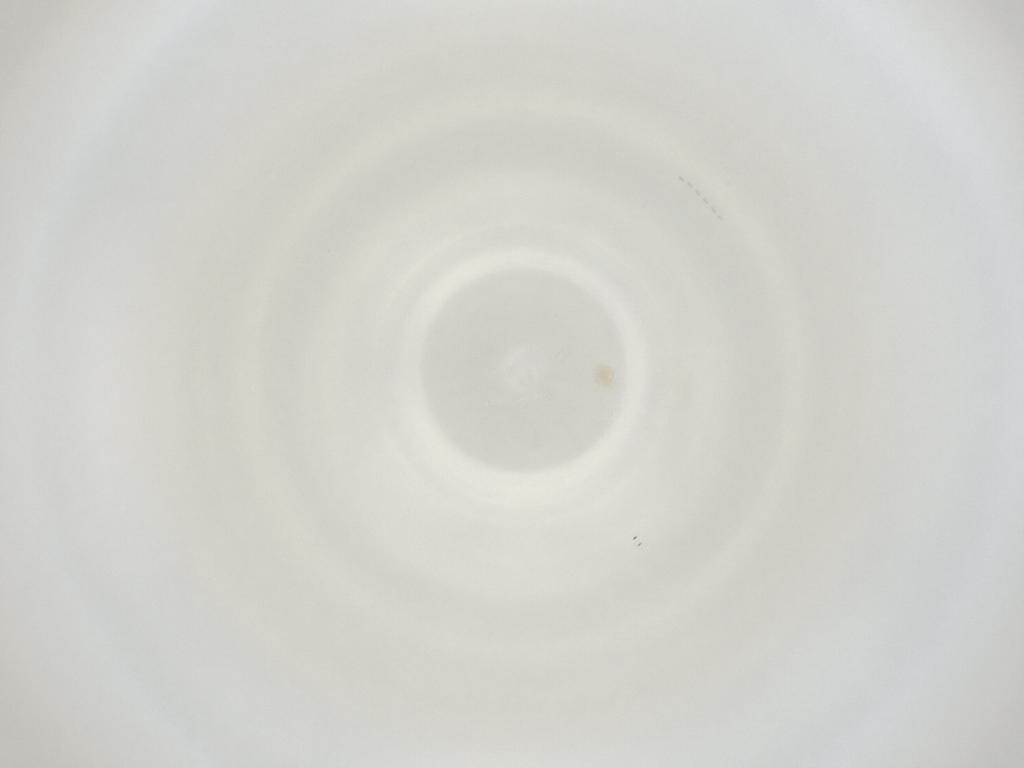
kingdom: Animalia
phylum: Arthropoda
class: Insecta
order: Diptera
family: Cecidomyiidae
